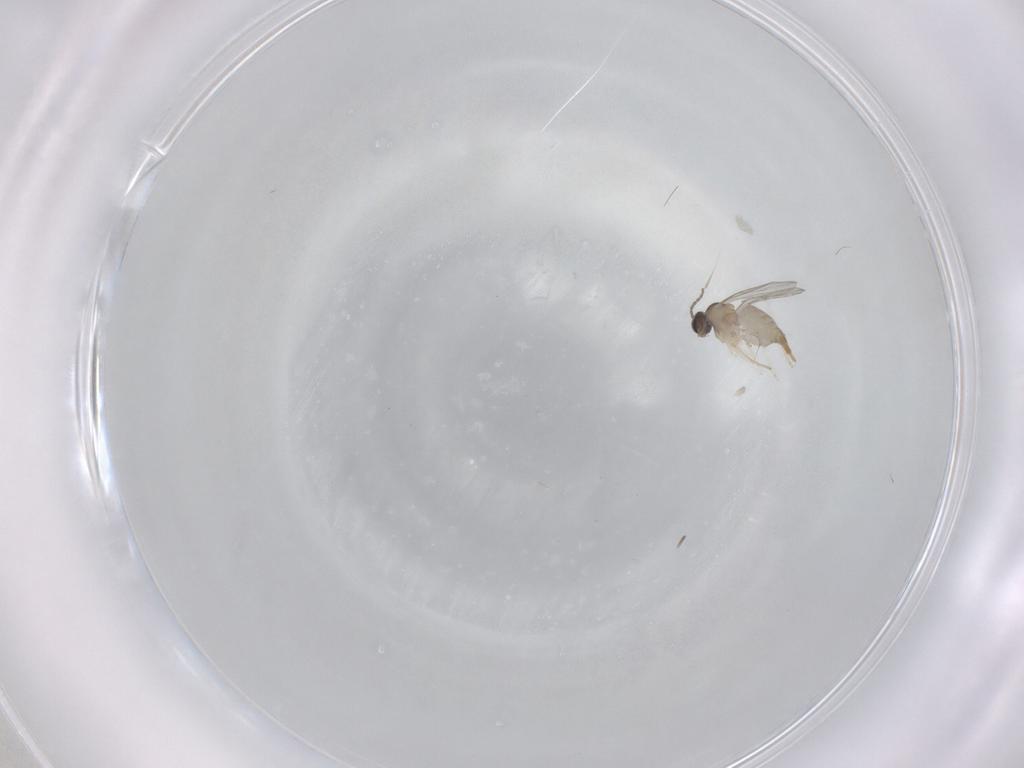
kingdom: Animalia
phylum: Arthropoda
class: Insecta
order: Diptera
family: Cecidomyiidae
